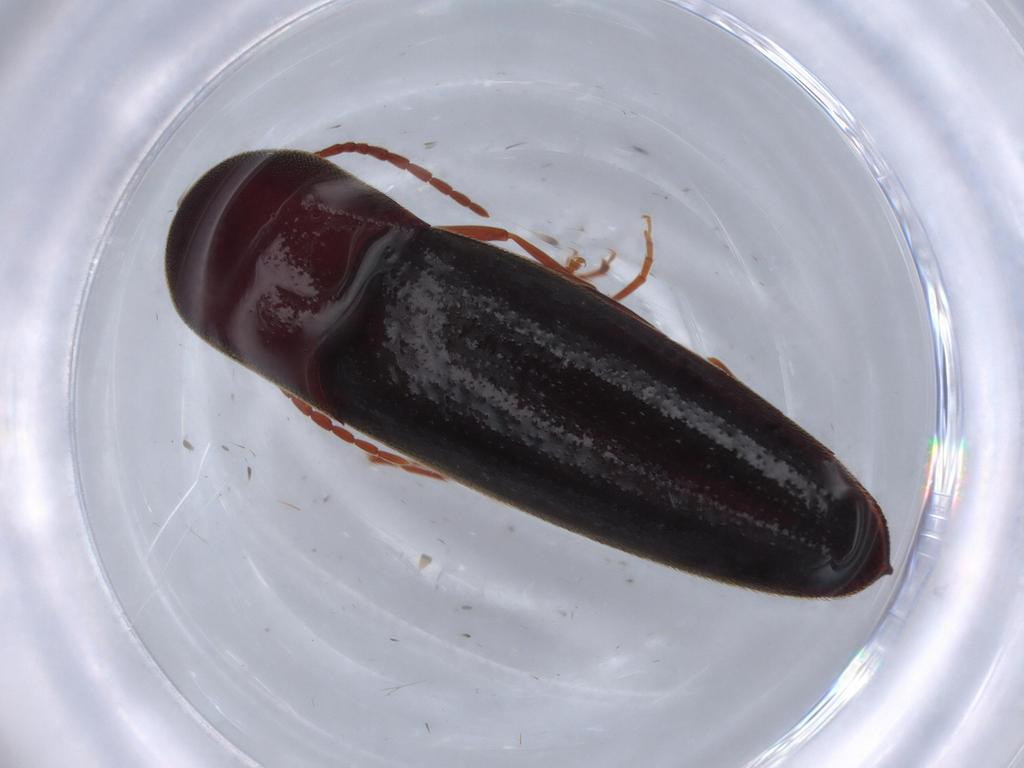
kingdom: Animalia
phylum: Arthropoda
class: Insecta
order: Coleoptera
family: Eucnemidae
